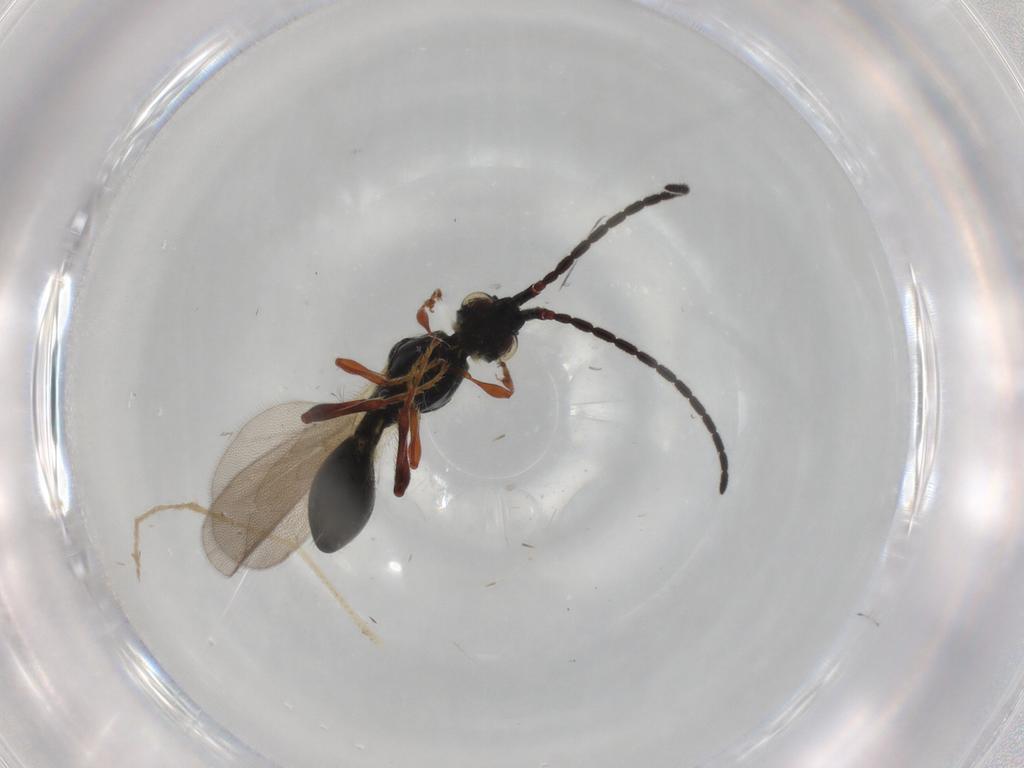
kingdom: Animalia
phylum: Arthropoda
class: Insecta
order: Hymenoptera
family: Diapriidae
